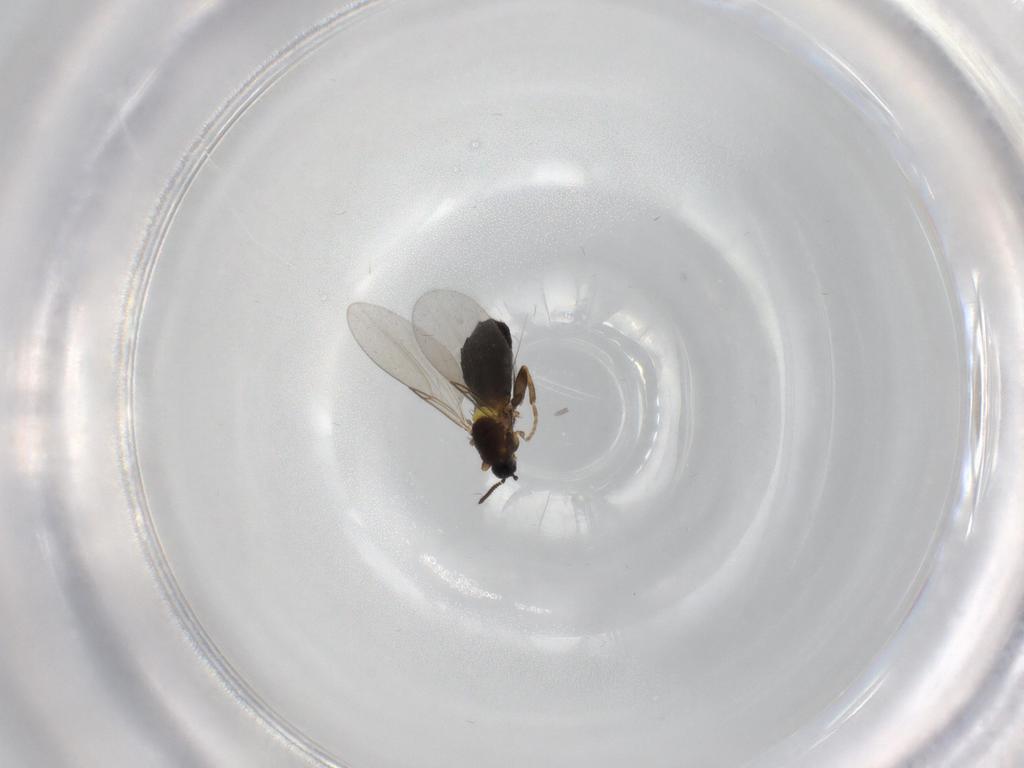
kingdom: Animalia
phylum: Arthropoda
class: Insecta
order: Diptera
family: Scatopsidae
